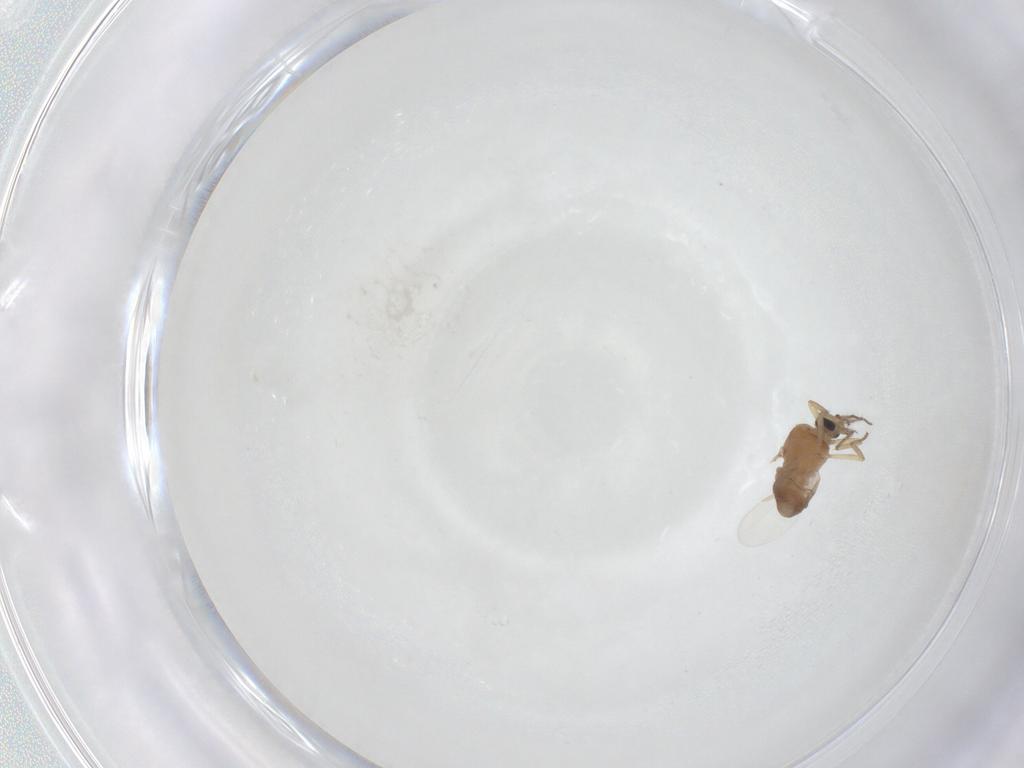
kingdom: Animalia
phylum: Arthropoda
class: Insecta
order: Diptera
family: Ceratopogonidae
